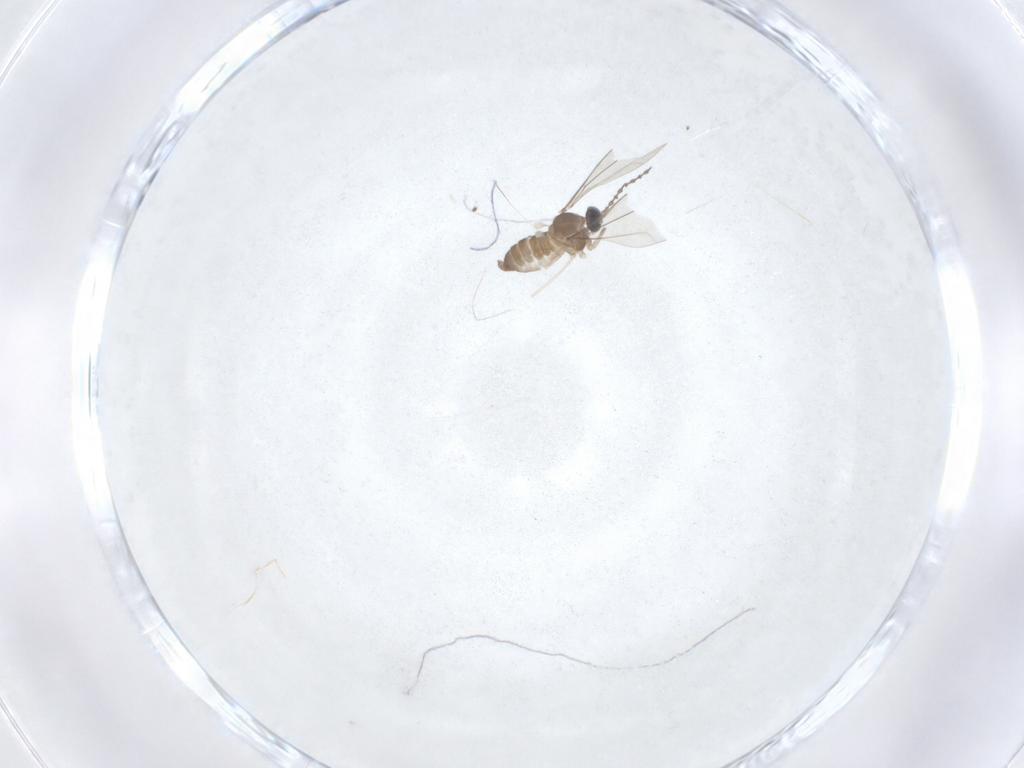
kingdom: Animalia
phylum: Arthropoda
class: Insecta
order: Diptera
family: Cecidomyiidae
